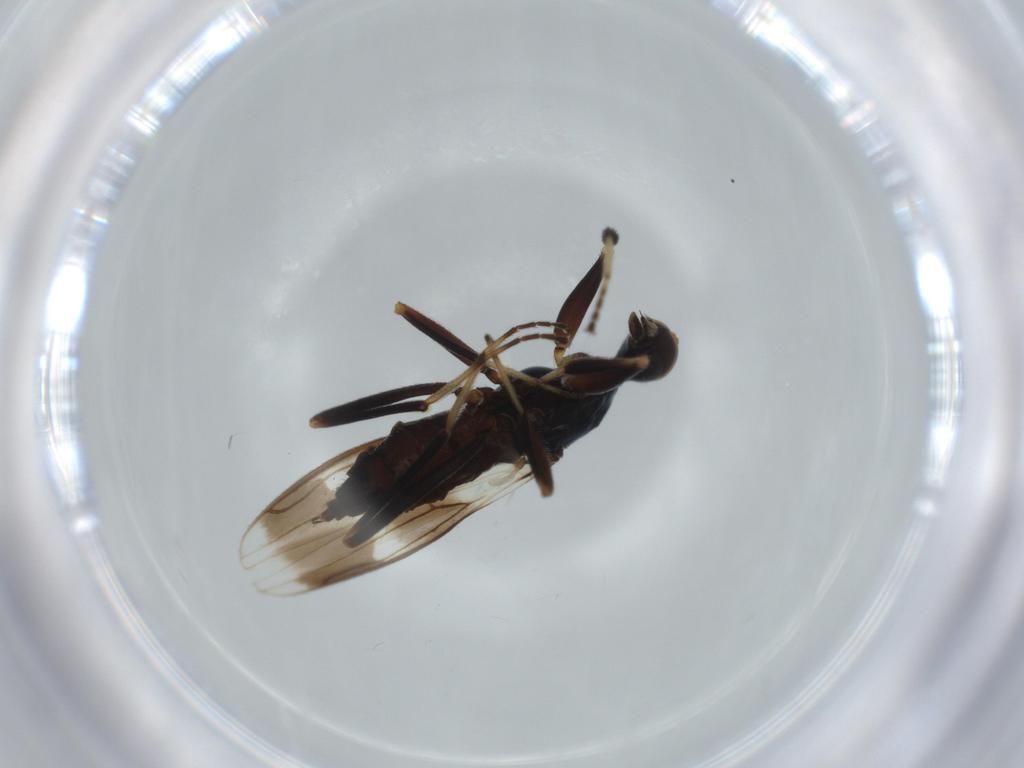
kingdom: Animalia
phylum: Arthropoda
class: Insecta
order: Diptera
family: Hybotidae
